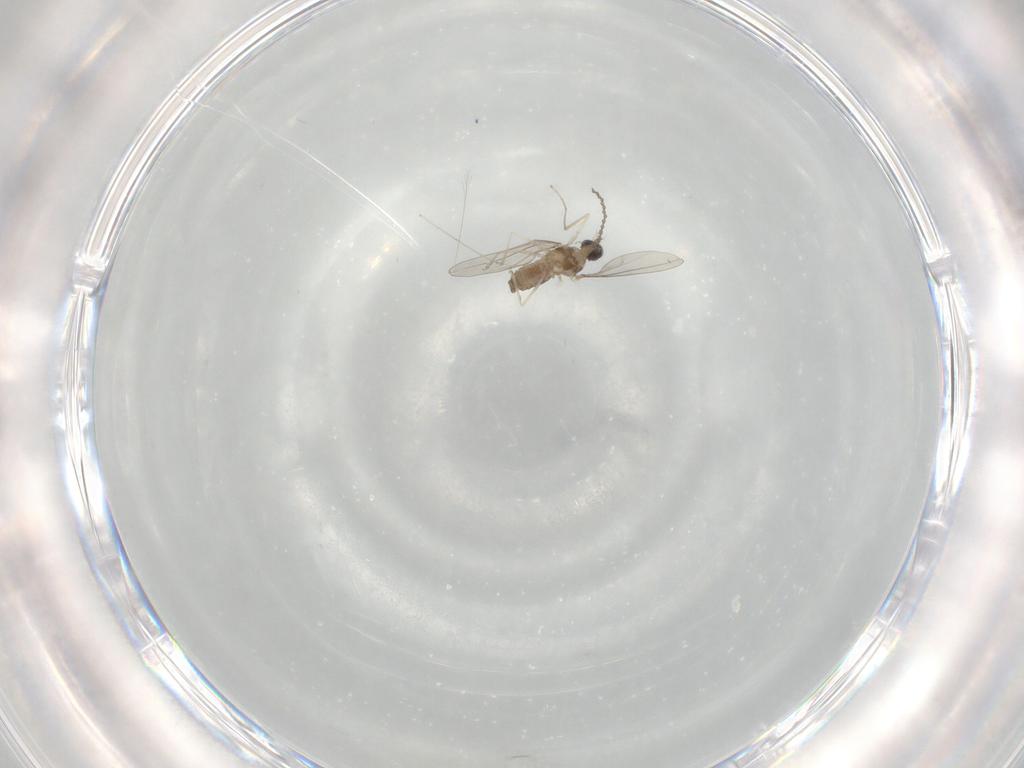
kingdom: Animalia
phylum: Arthropoda
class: Insecta
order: Diptera
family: Cecidomyiidae
